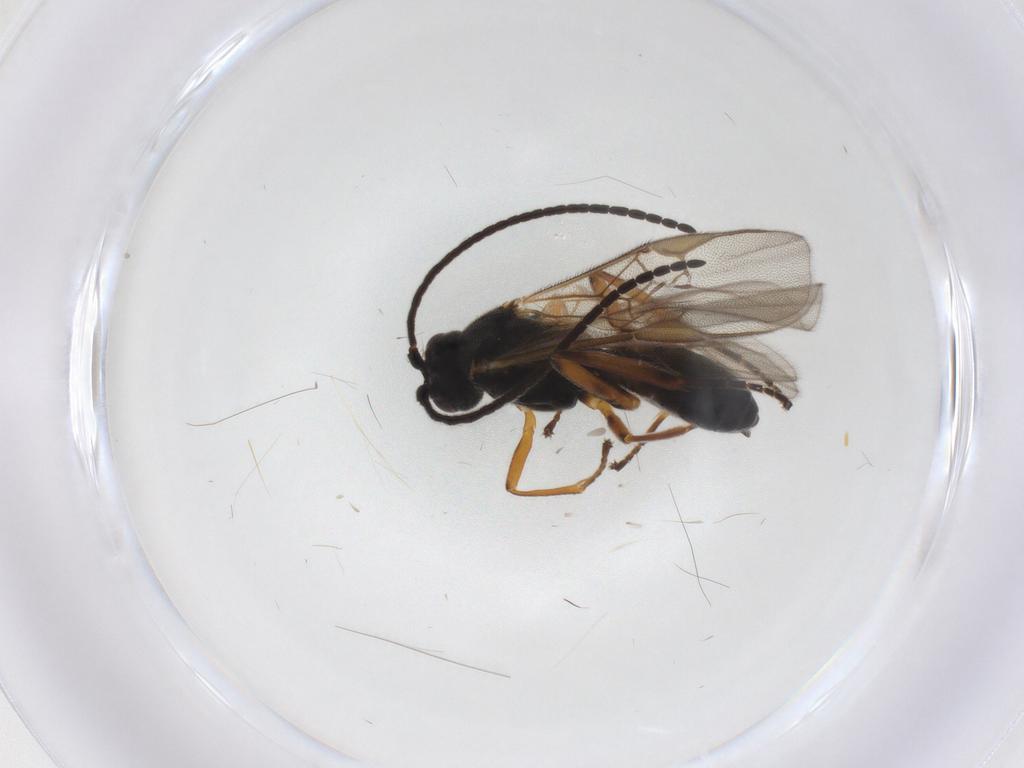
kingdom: Animalia
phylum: Arthropoda
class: Insecta
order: Hymenoptera
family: Braconidae
